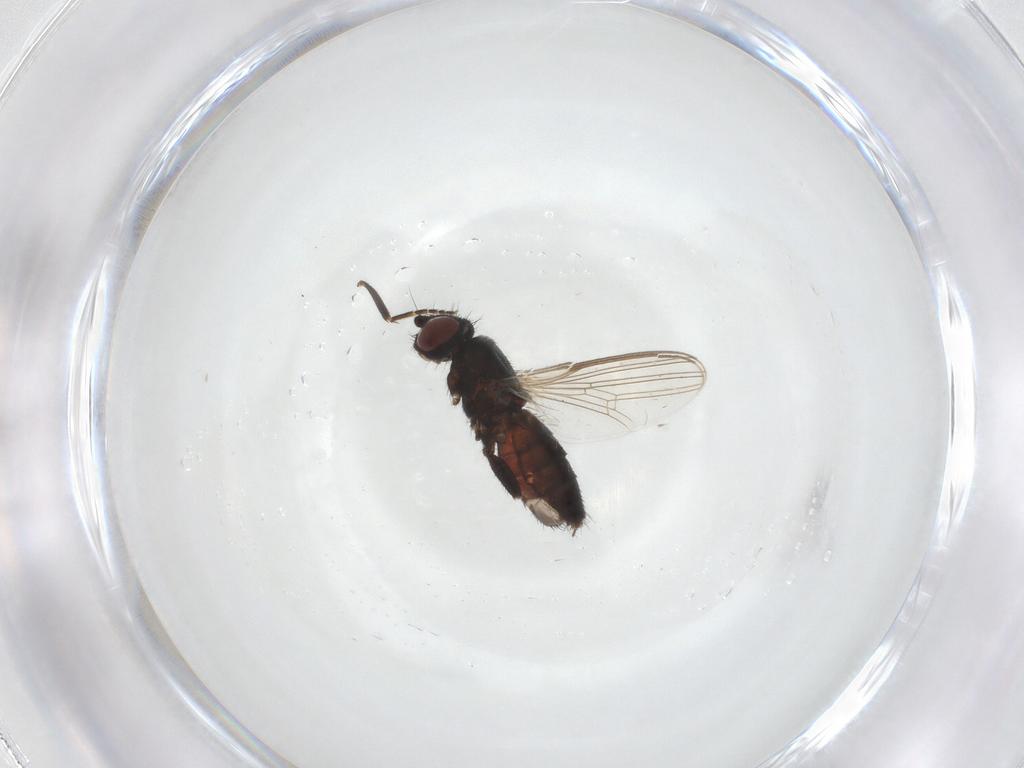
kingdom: Animalia
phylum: Arthropoda
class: Insecta
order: Diptera
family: Milichiidae
